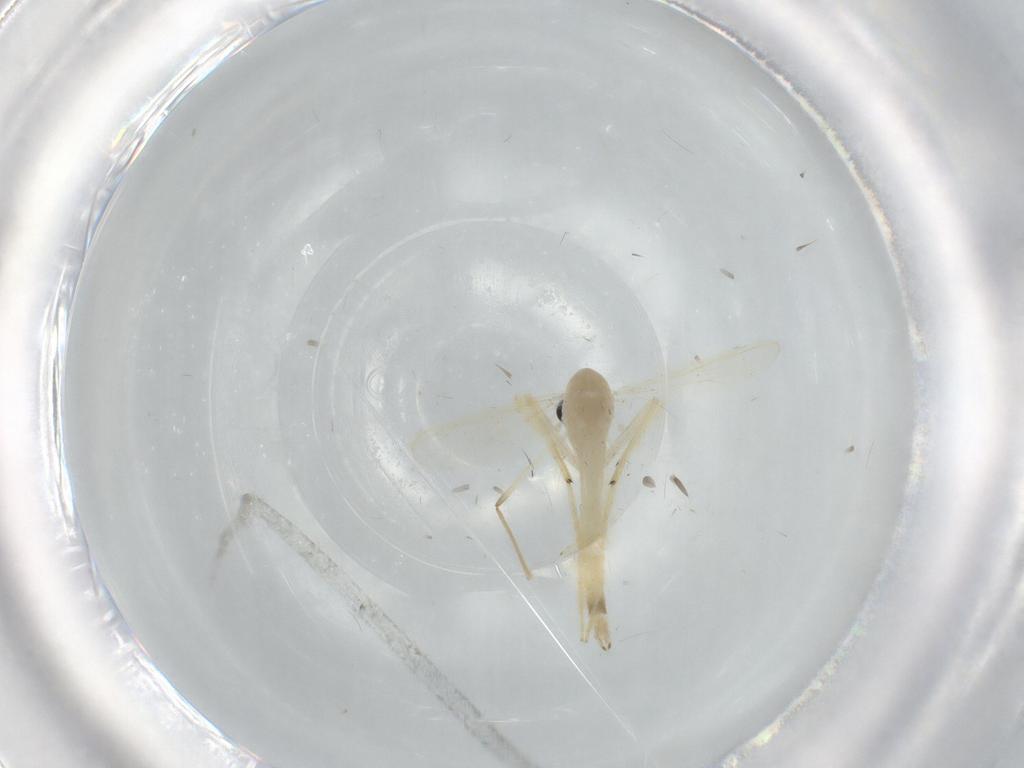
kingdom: Animalia
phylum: Arthropoda
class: Insecta
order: Diptera
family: Chironomidae
